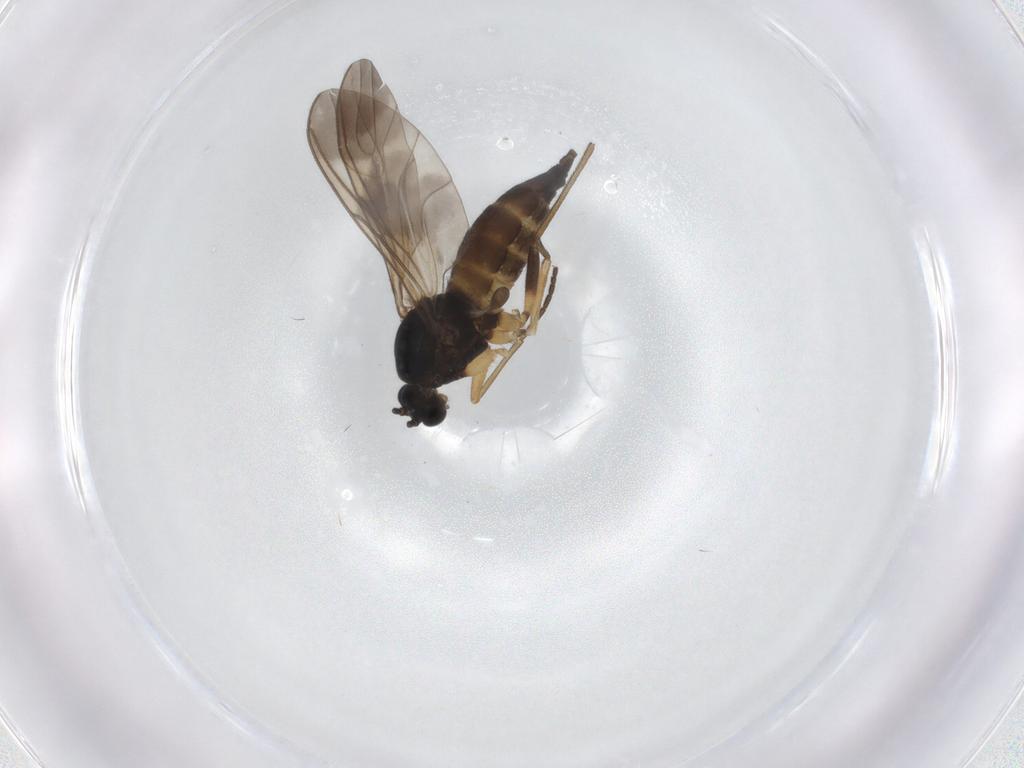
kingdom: Animalia
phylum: Arthropoda
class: Insecta
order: Diptera
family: Sciaridae
